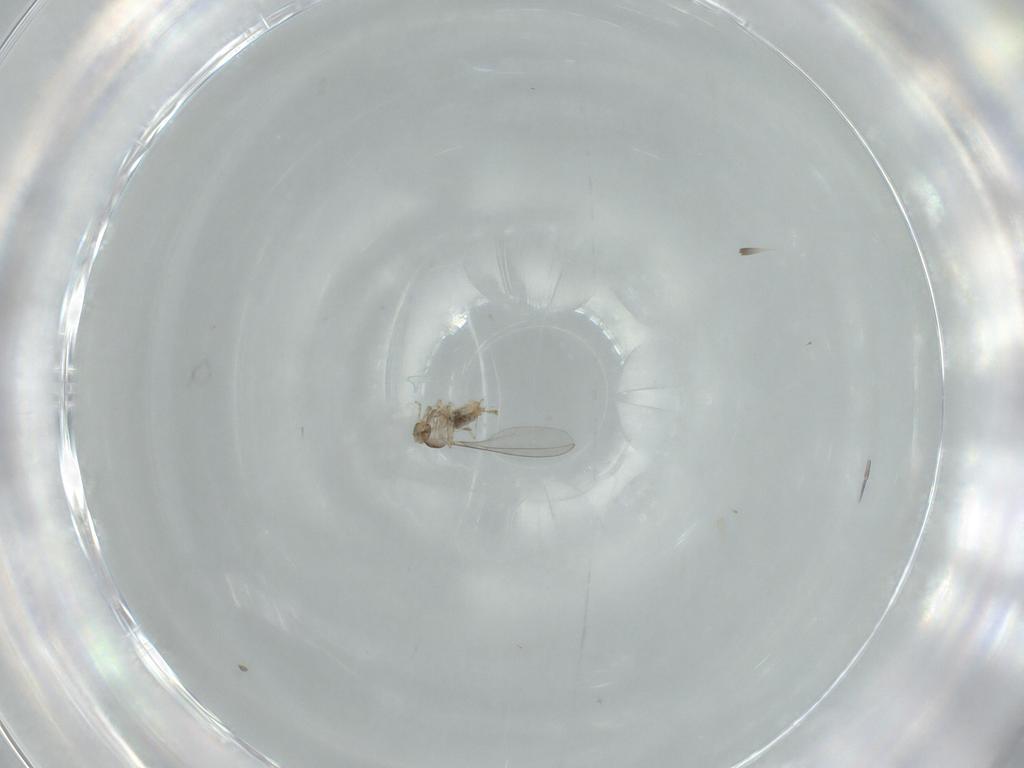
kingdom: Animalia
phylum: Arthropoda
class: Insecta
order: Diptera
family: Cecidomyiidae
